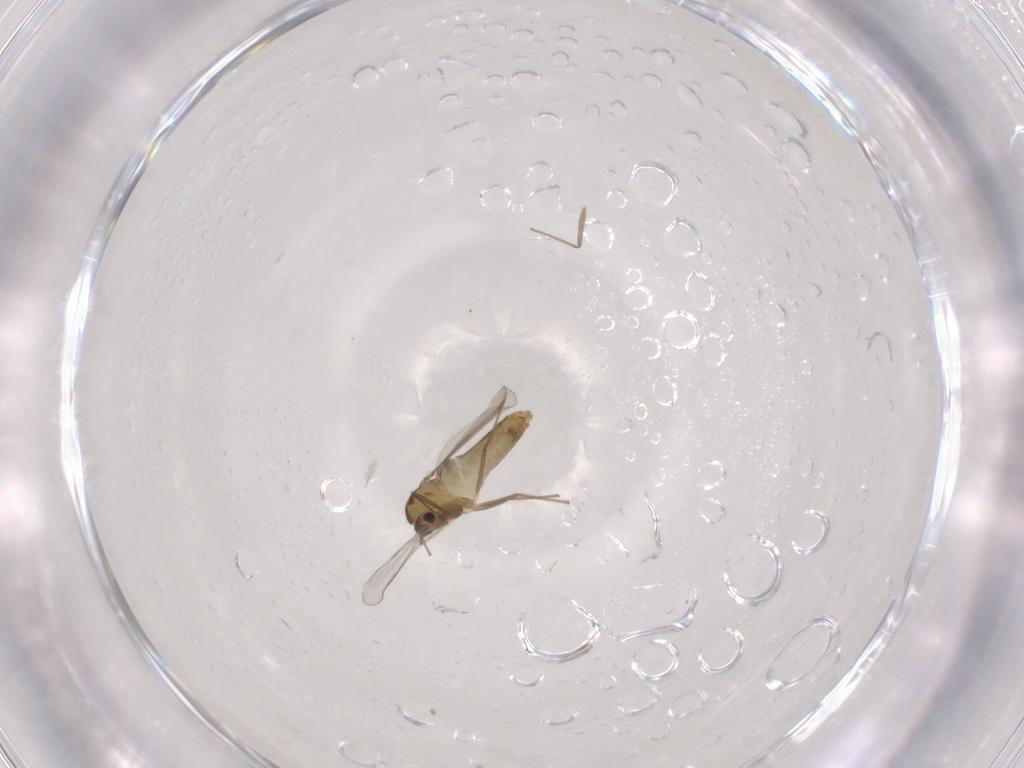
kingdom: Animalia
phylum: Arthropoda
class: Insecta
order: Diptera
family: Chironomidae
